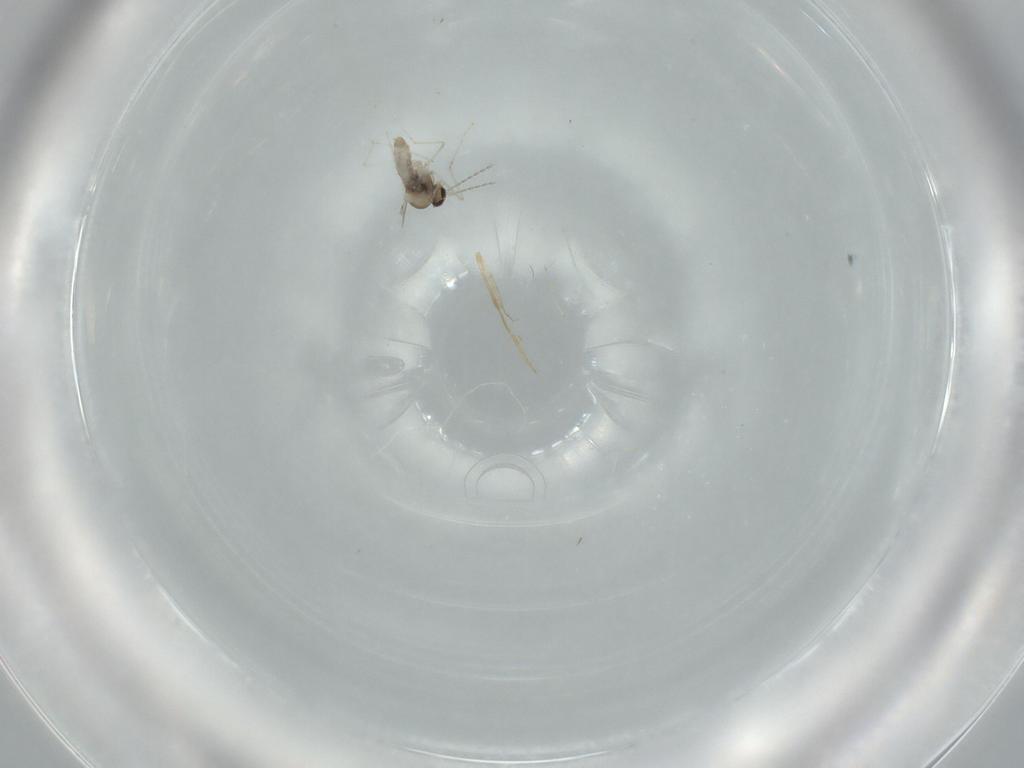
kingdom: Animalia
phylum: Arthropoda
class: Insecta
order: Diptera
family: Cecidomyiidae
